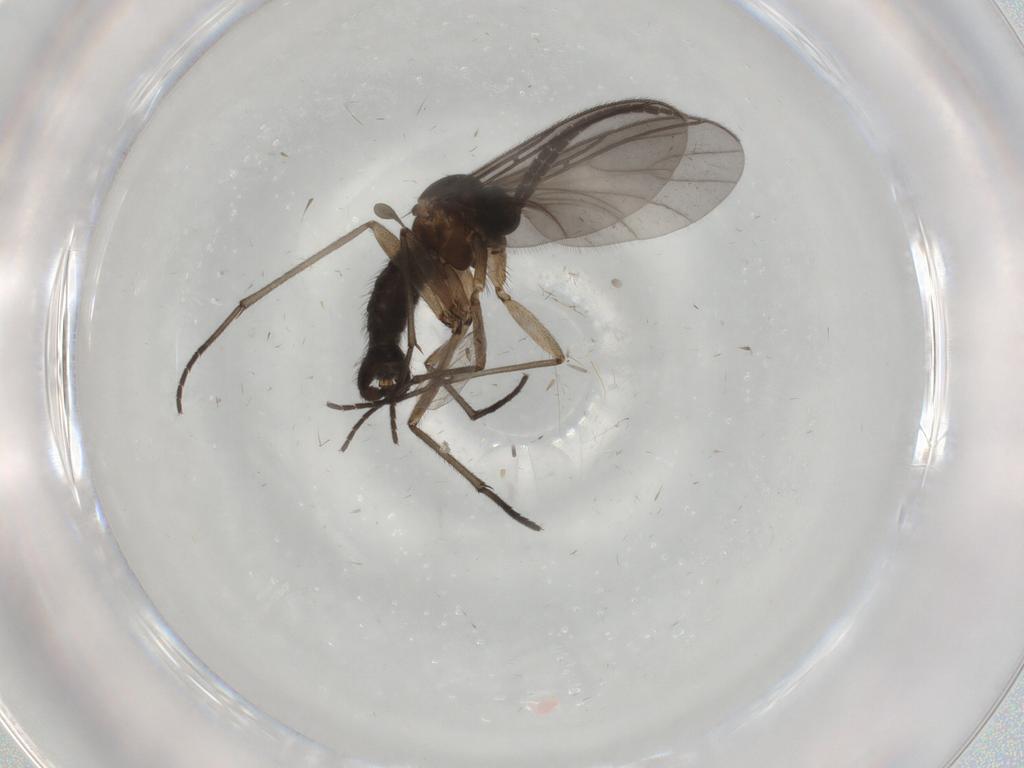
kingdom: Animalia
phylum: Arthropoda
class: Insecta
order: Diptera
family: Sciaridae
